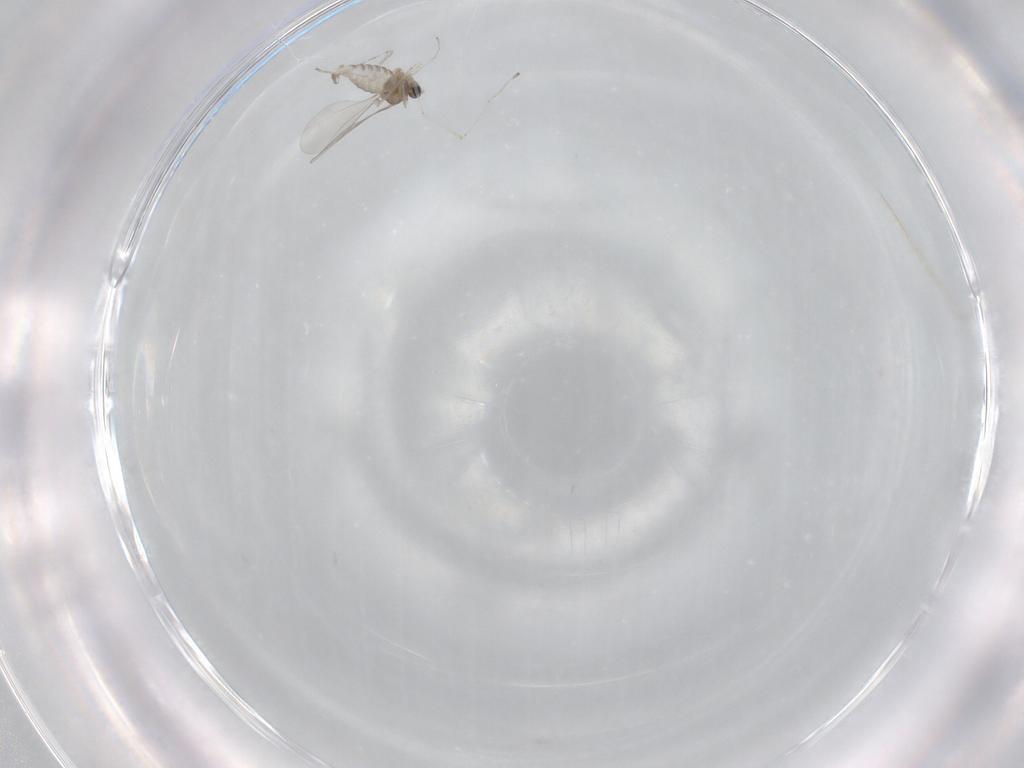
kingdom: Animalia
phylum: Arthropoda
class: Insecta
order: Diptera
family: Cecidomyiidae
